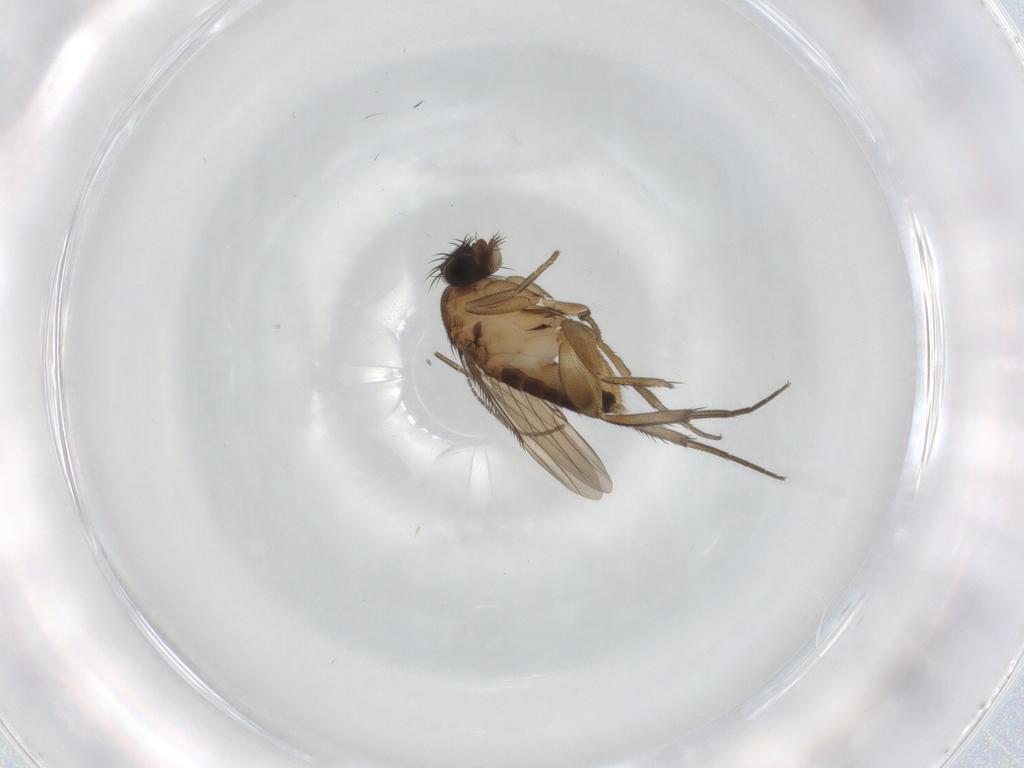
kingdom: Animalia
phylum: Arthropoda
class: Insecta
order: Diptera
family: Phoridae
